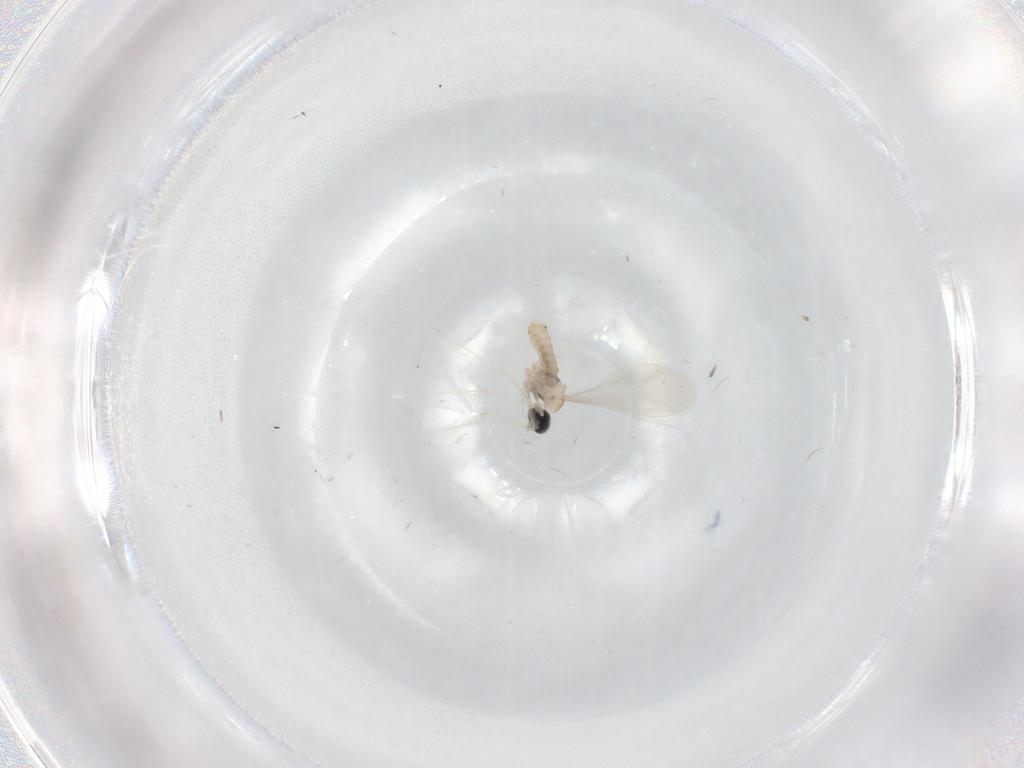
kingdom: Animalia
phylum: Arthropoda
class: Insecta
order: Diptera
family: Cecidomyiidae
